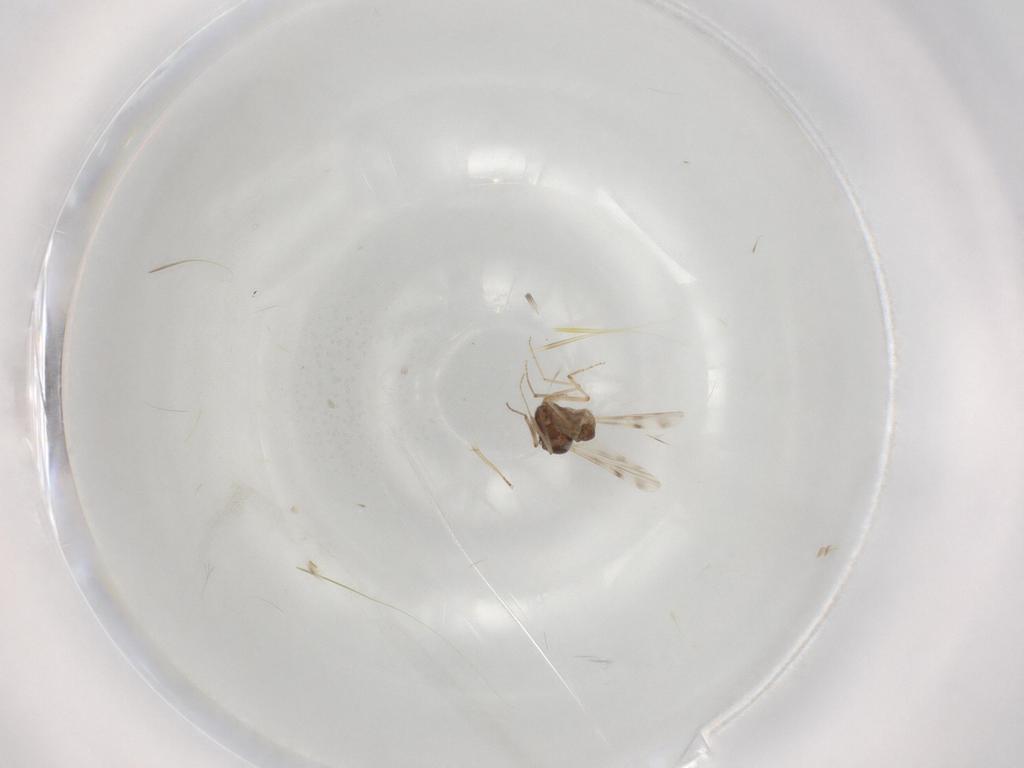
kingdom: Animalia
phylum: Arthropoda
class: Insecta
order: Diptera
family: Ceratopogonidae
